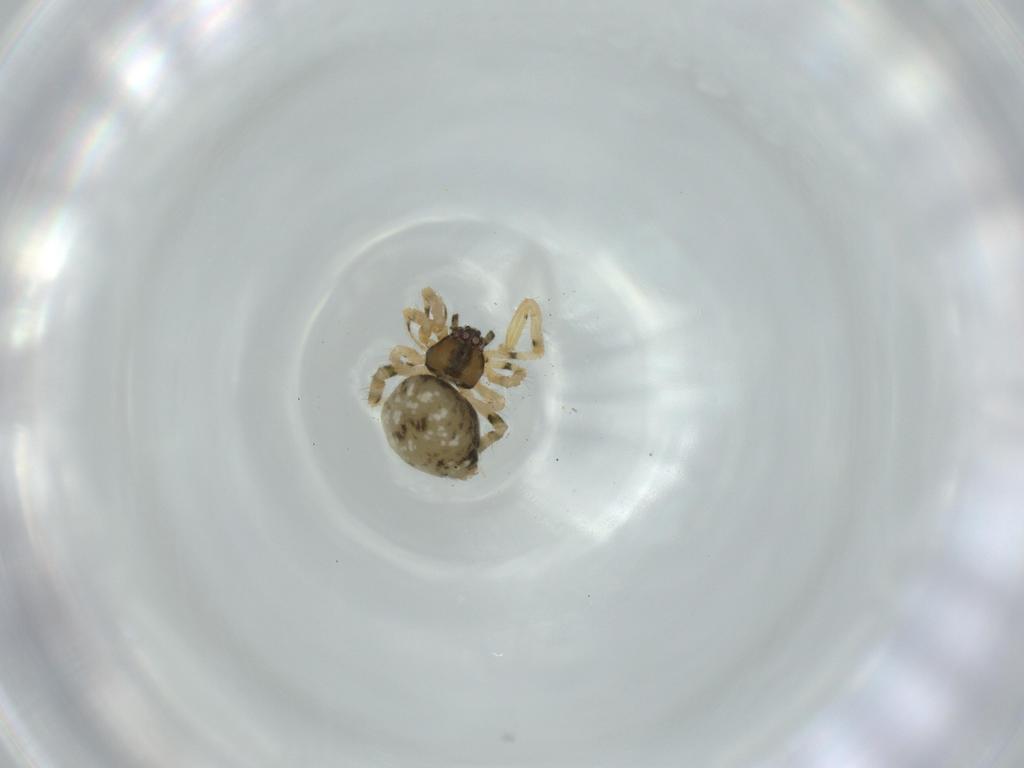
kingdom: Animalia
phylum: Arthropoda
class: Arachnida
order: Araneae
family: Theridiidae
